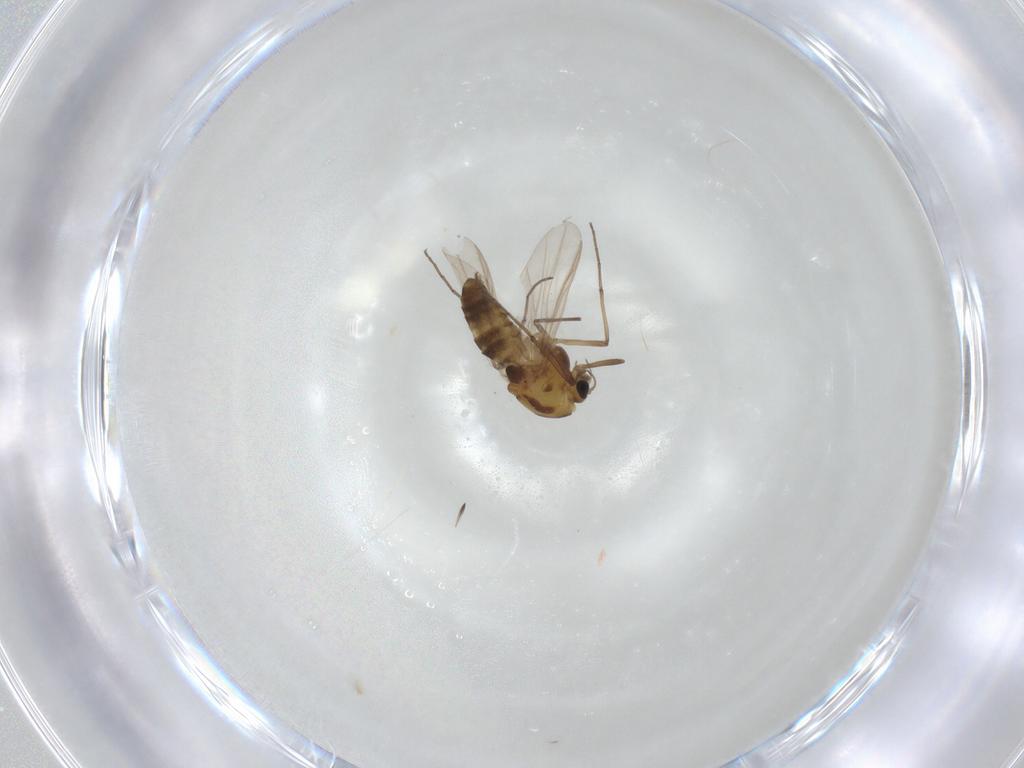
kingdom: Animalia
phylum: Arthropoda
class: Insecta
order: Diptera
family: Chironomidae
